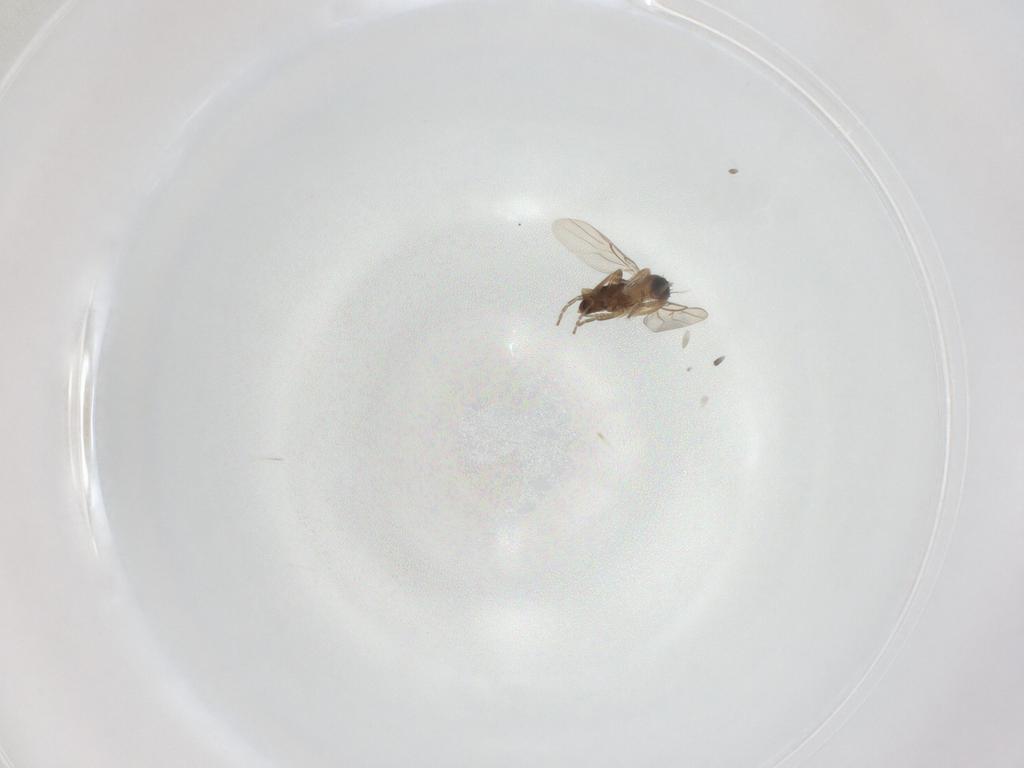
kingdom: Animalia
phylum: Arthropoda
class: Insecta
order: Diptera
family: Phoridae
